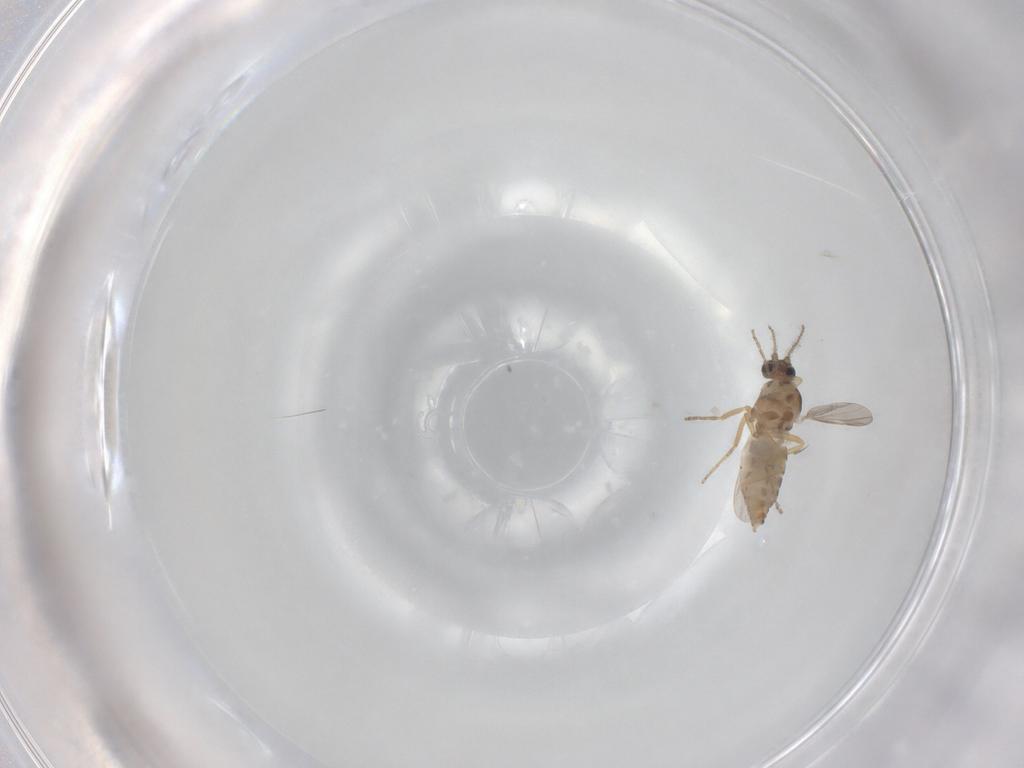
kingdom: Animalia
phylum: Arthropoda
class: Insecta
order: Diptera
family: Ceratopogonidae
